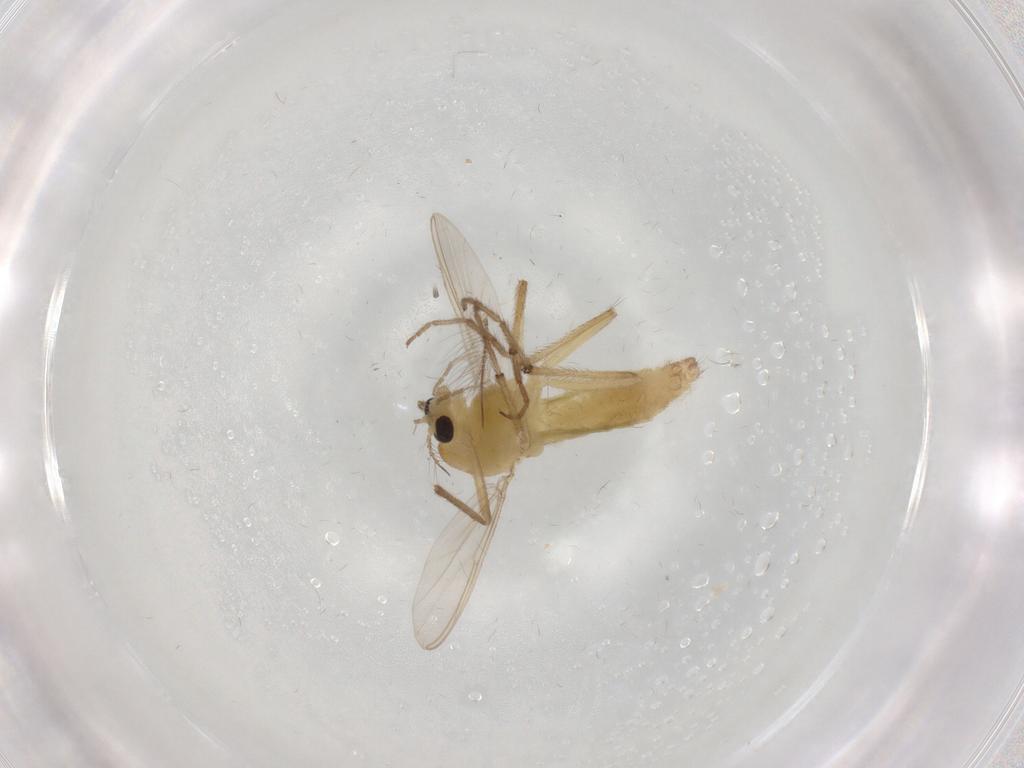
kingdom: Animalia
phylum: Arthropoda
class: Insecta
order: Diptera
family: Chironomidae
